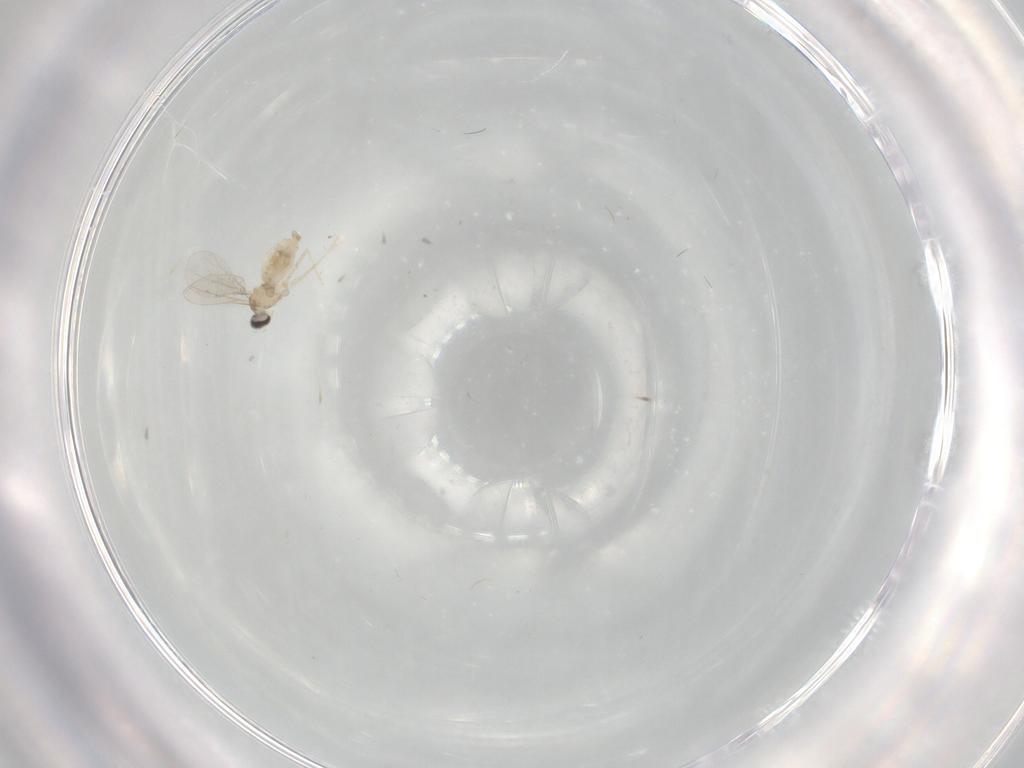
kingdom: Animalia
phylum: Arthropoda
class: Insecta
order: Diptera
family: Cecidomyiidae
